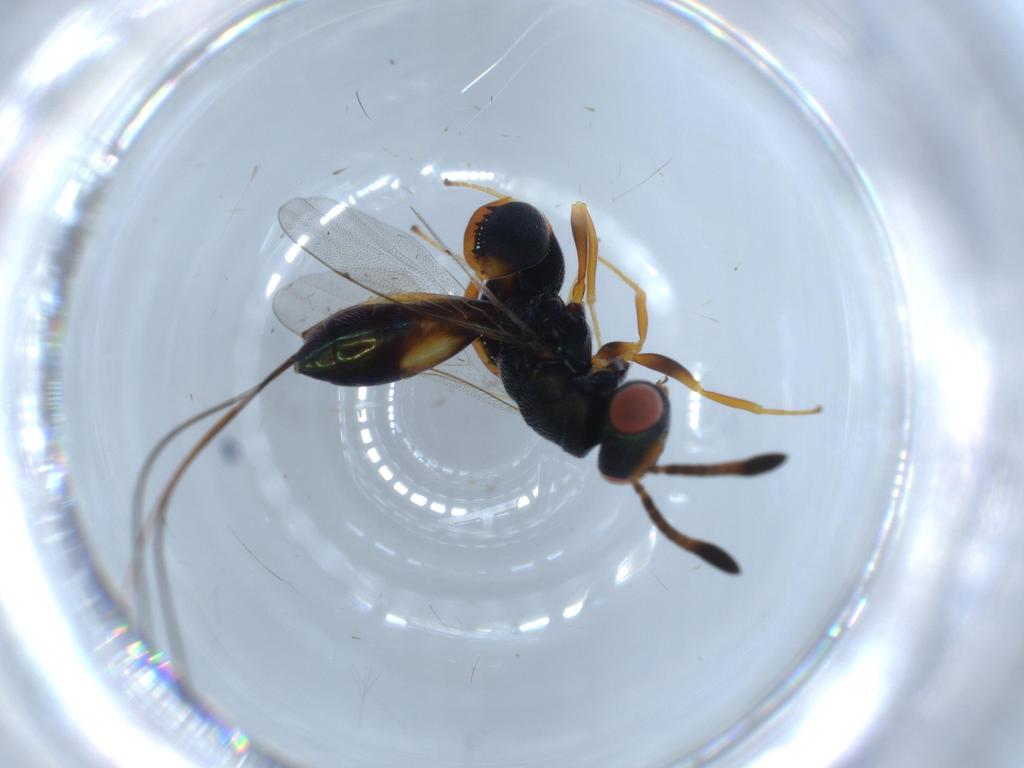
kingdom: Animalia
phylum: Arthropoda
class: Insecta
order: Hymenoptera
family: Torymidae
